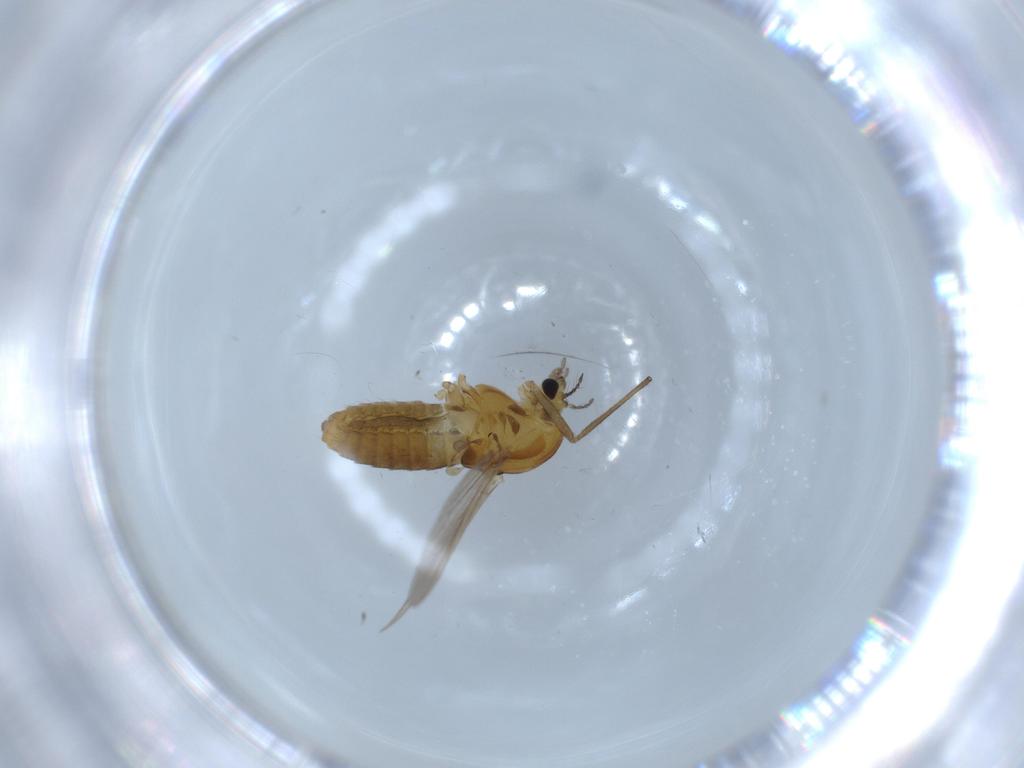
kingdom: Animalia
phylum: Arthropoda
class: Insecta
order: Diptera
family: Chironomidae
